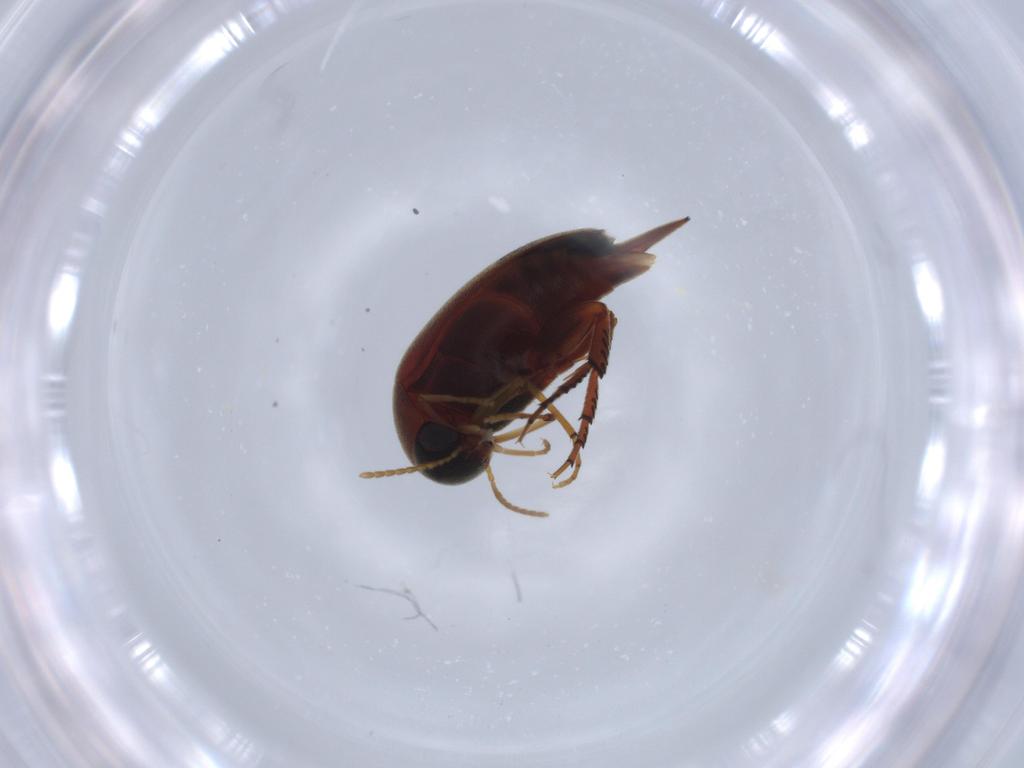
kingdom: Animalia
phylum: Arthropoda
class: Insecta
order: Coleoptera
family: Mordellidae
